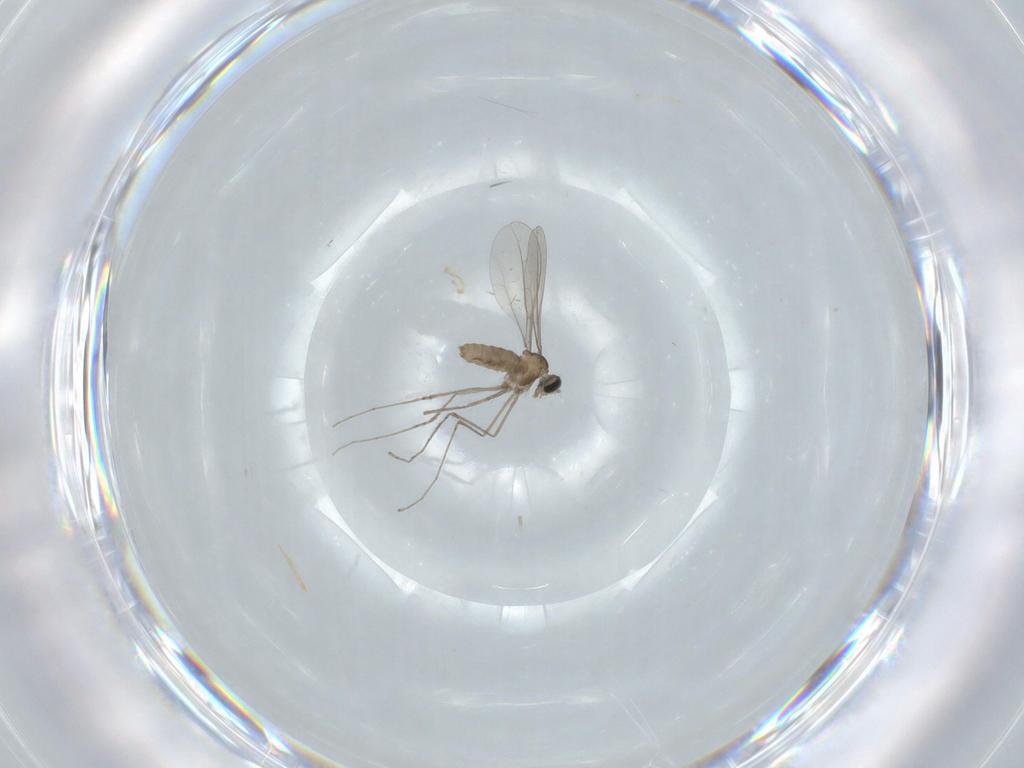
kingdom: Animalia
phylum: Arthropoda
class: Insecta
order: Diptera
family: Cecidomyiidae
